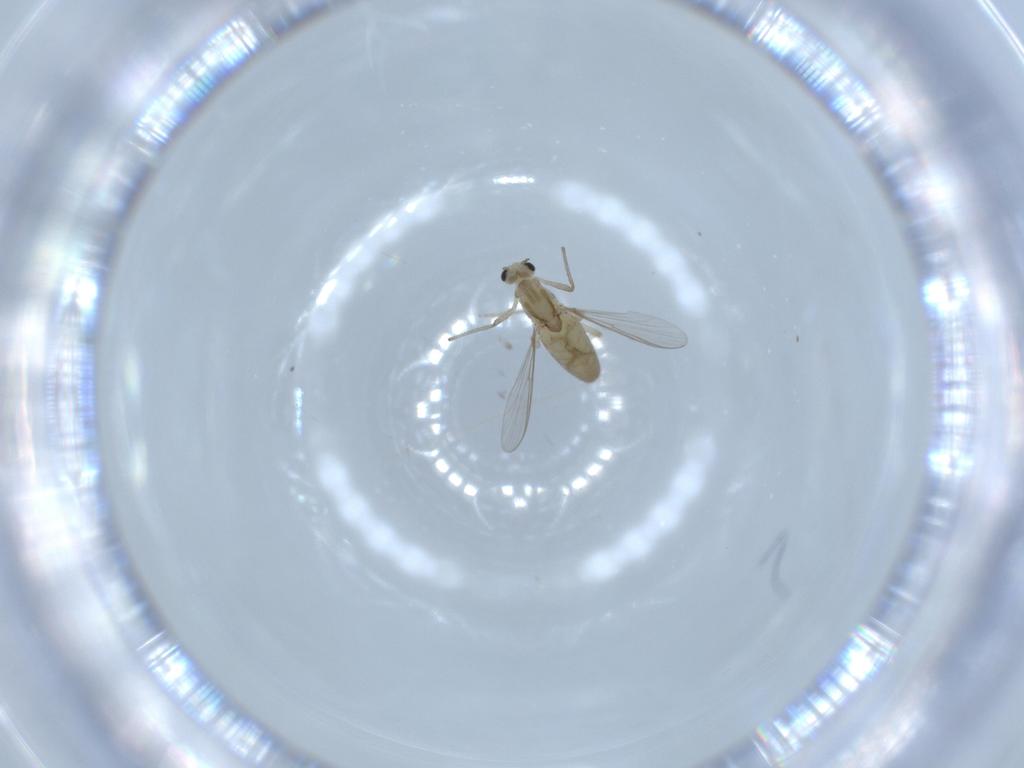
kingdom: Animalia
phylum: Arthropoda
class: Insecta
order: Diptera
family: Chironomidae
